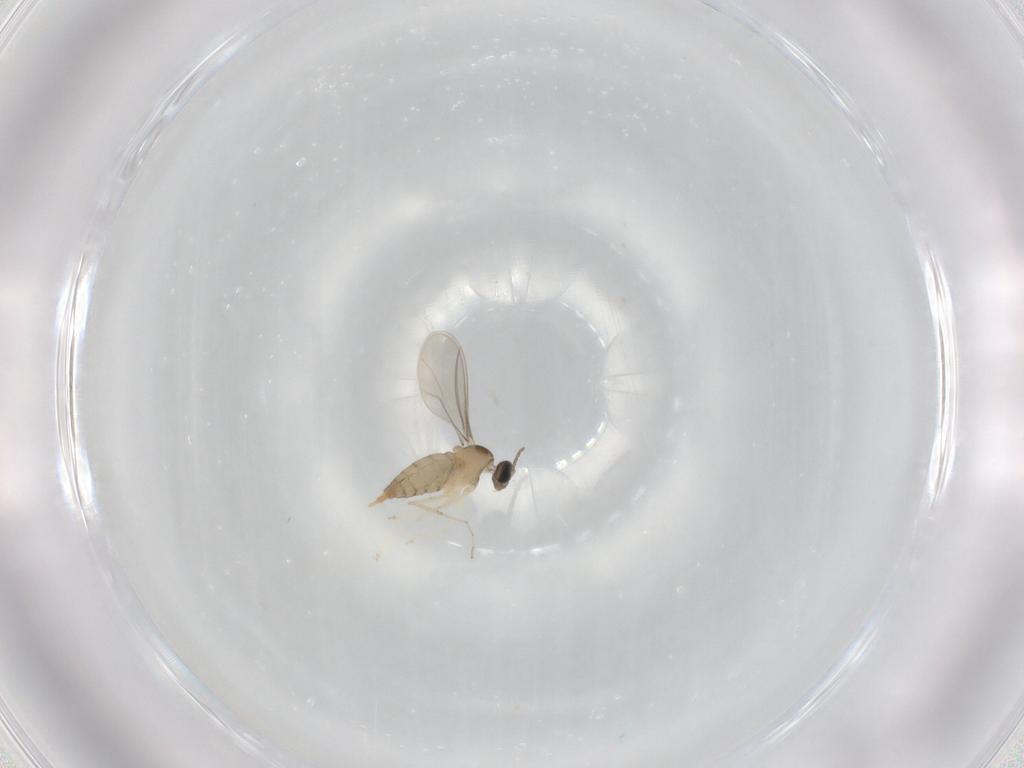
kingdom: Animalia
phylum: Arthropoda
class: Insecta
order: Diptera
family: Cecidomyiidae
